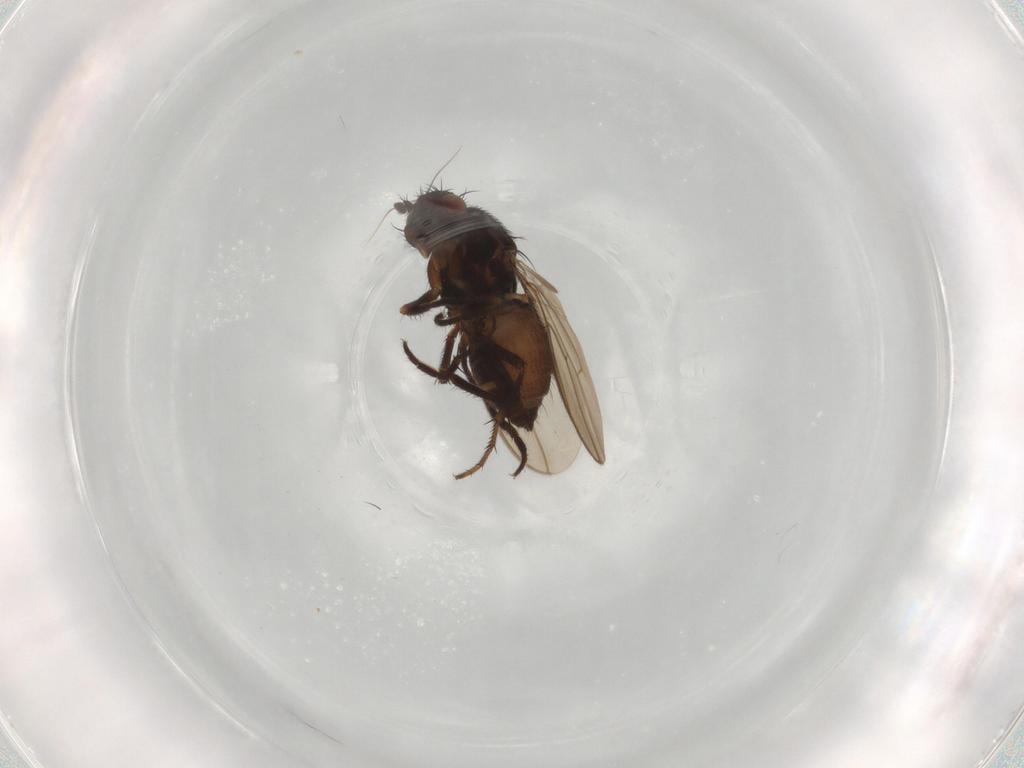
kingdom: Animalia
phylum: Arthropoda
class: Insecta
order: Diptera
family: Sphaeroceridae
